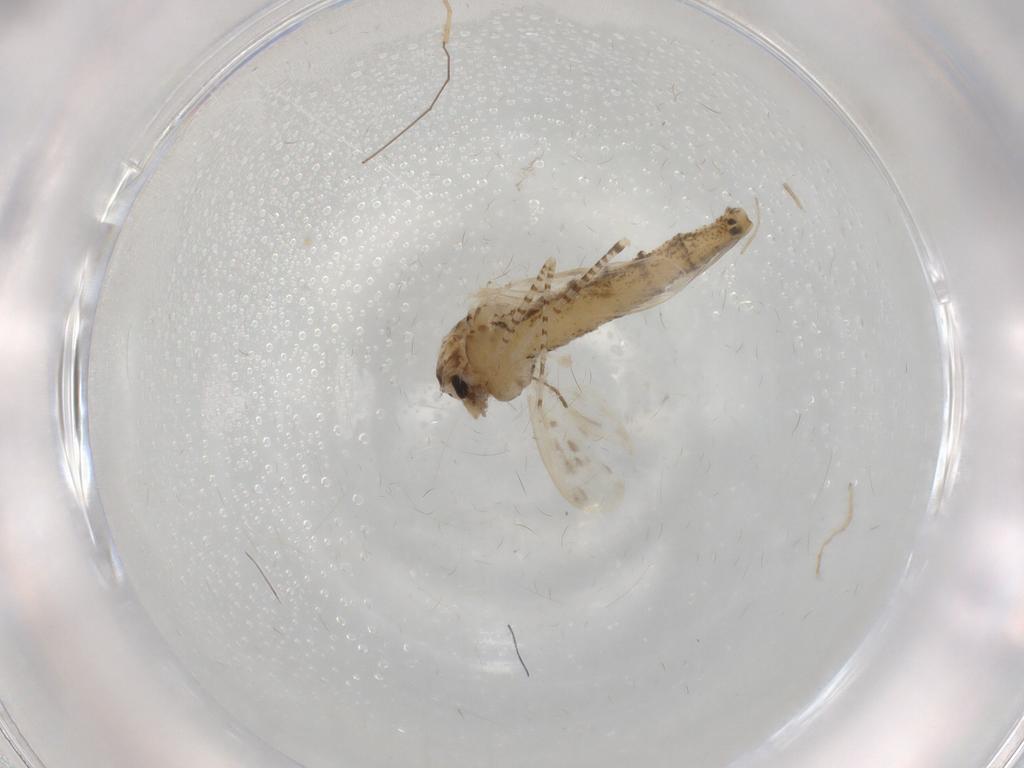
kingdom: Animalia
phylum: Arthropoda
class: Insecta
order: Diptera
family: Chaoboridae
